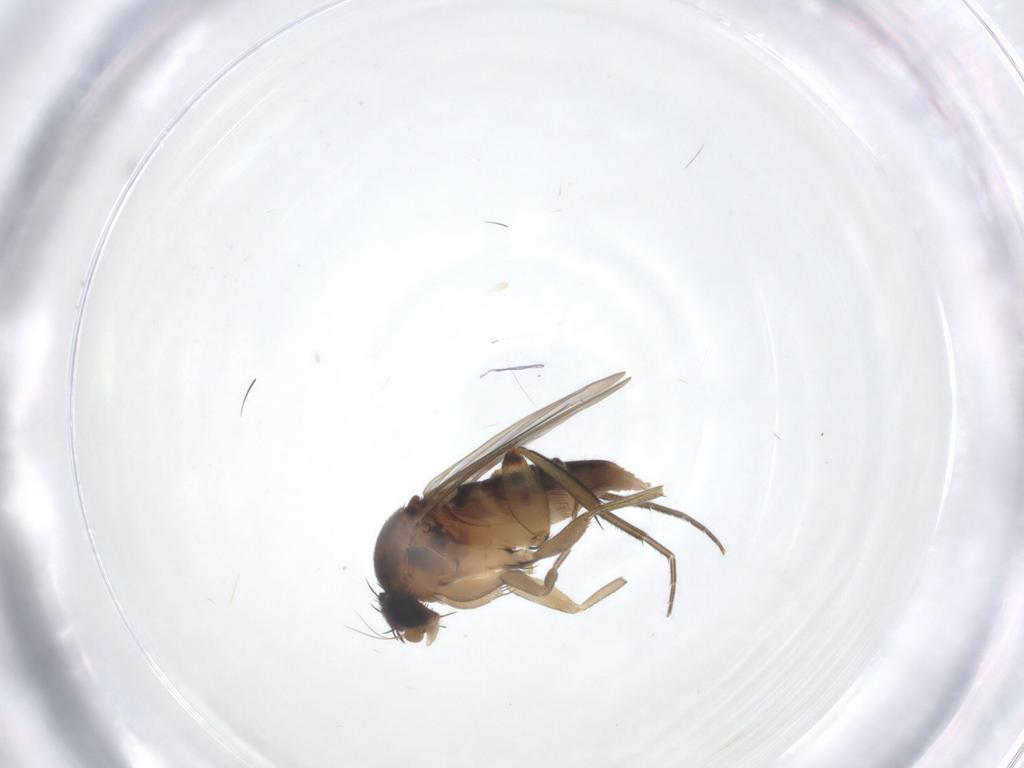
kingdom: Animalia
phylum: Arthropoda
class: Insecta
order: Diptera
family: Phoridae
